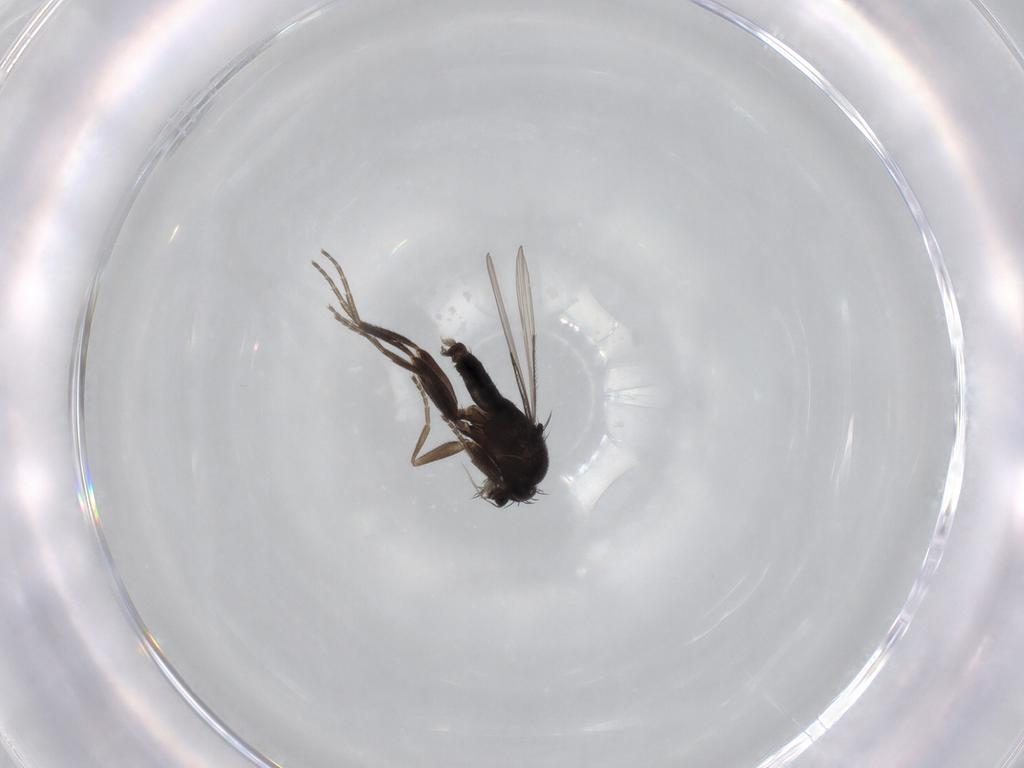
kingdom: Animalia
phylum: Arthropoda
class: Insecta
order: Diptera
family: Phoridae
